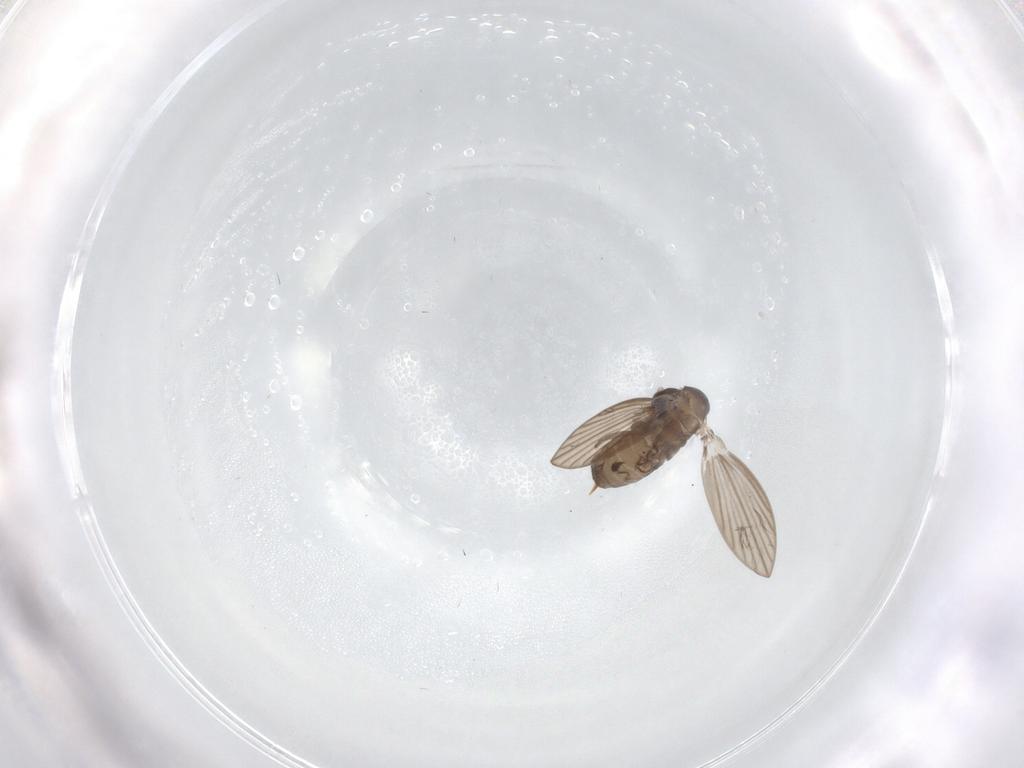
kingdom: Animalia
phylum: Arthropoda
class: Insecta
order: Diptera
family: Psychodidae
